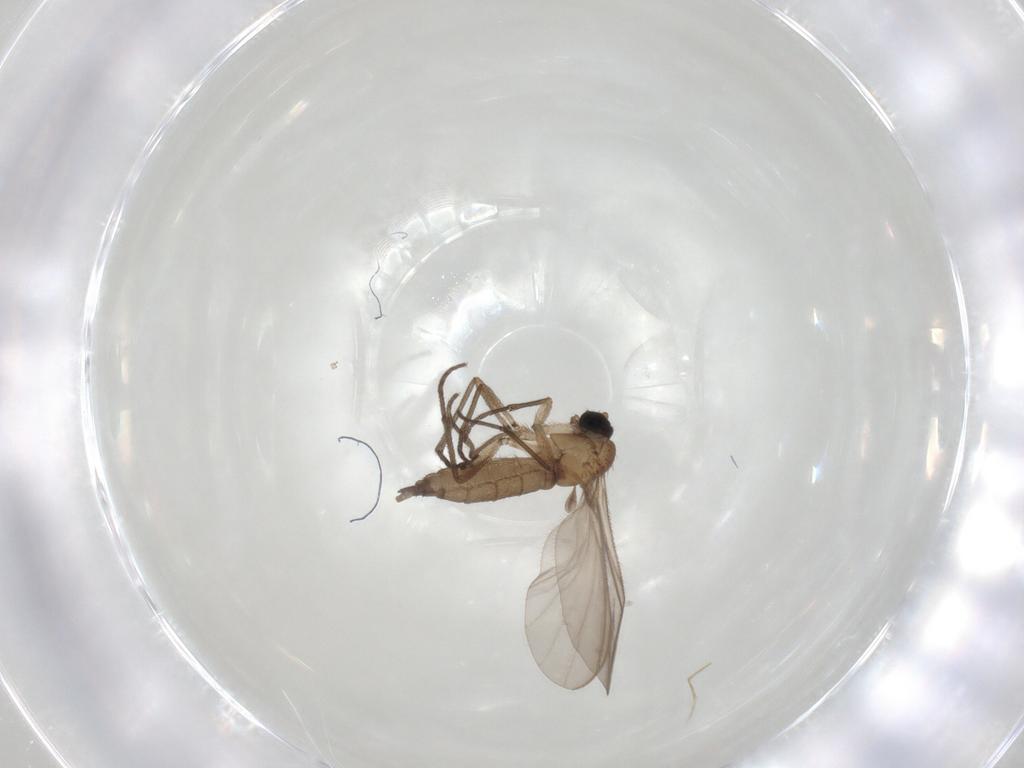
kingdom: Animalia
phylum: Arthropoda
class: Insecta
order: Diptera
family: Sciaridae
